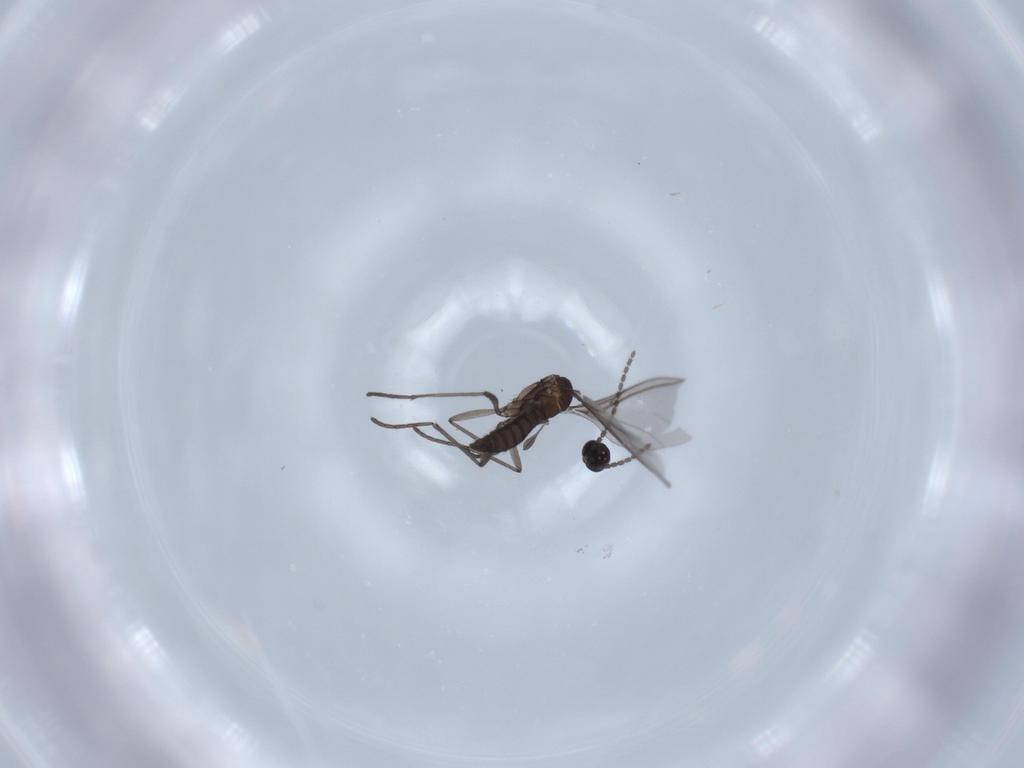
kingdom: Animalia
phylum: Arthropoda
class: Insecta
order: Diptera
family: Sciaridae
